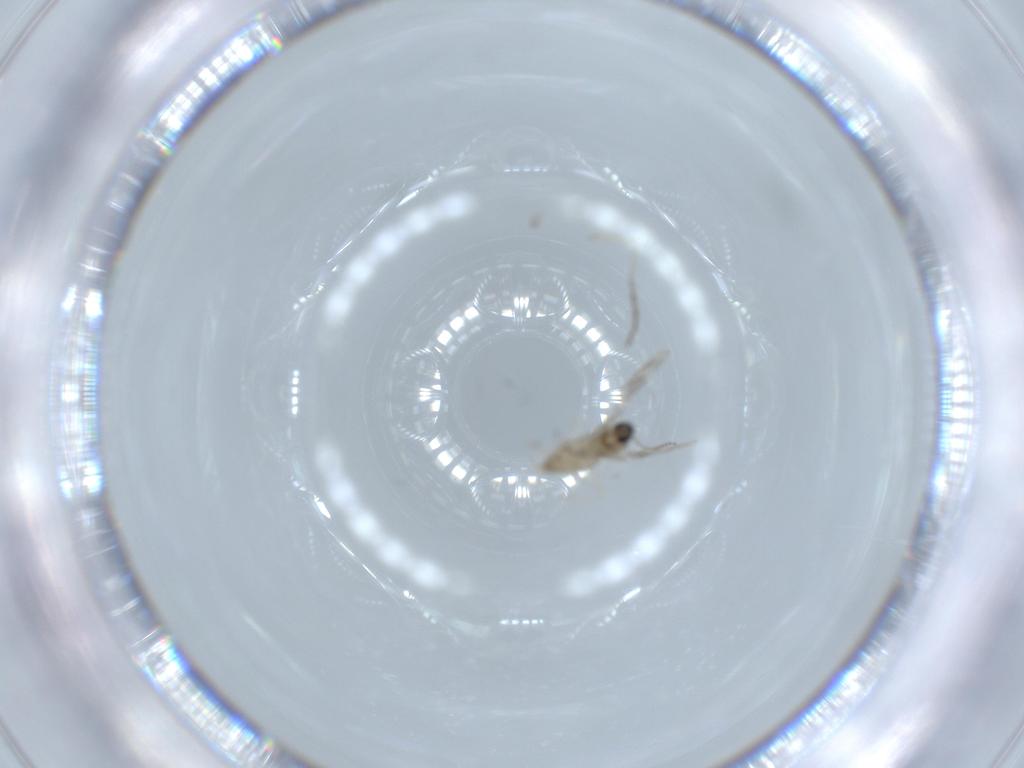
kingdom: Animalia
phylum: Arthropoda
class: Insecta
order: Diptera
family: Cecidomyiidae
